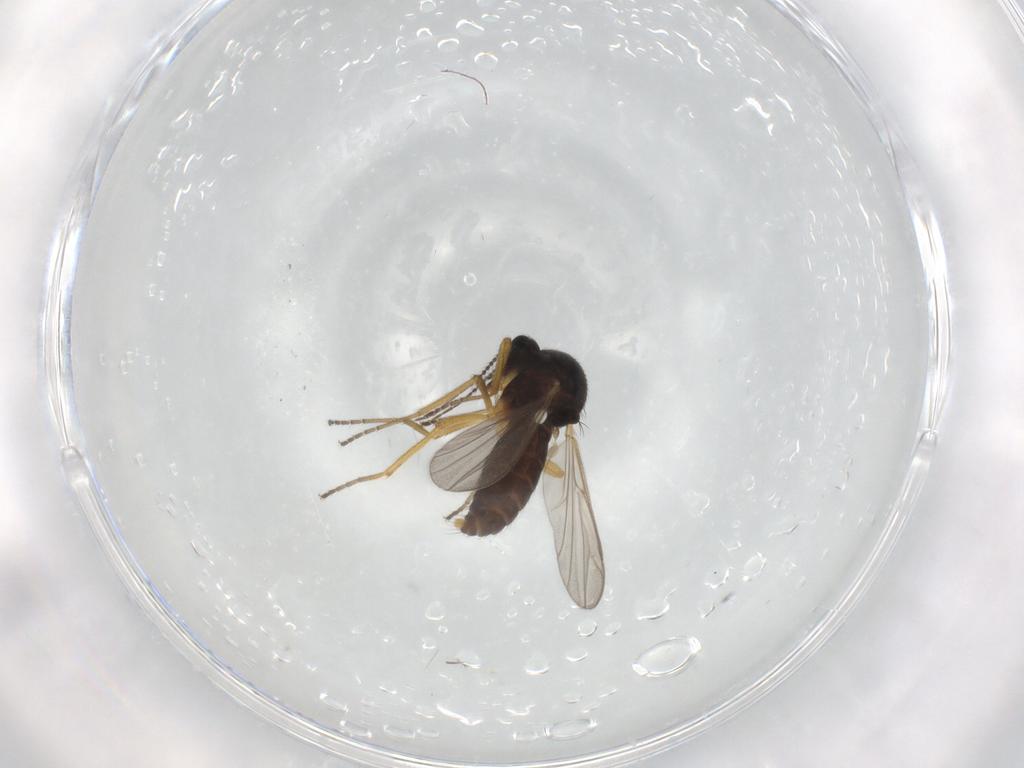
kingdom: Animalia
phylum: Arthropoda
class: Insecta
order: Diptera
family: Ceratopogonidae
